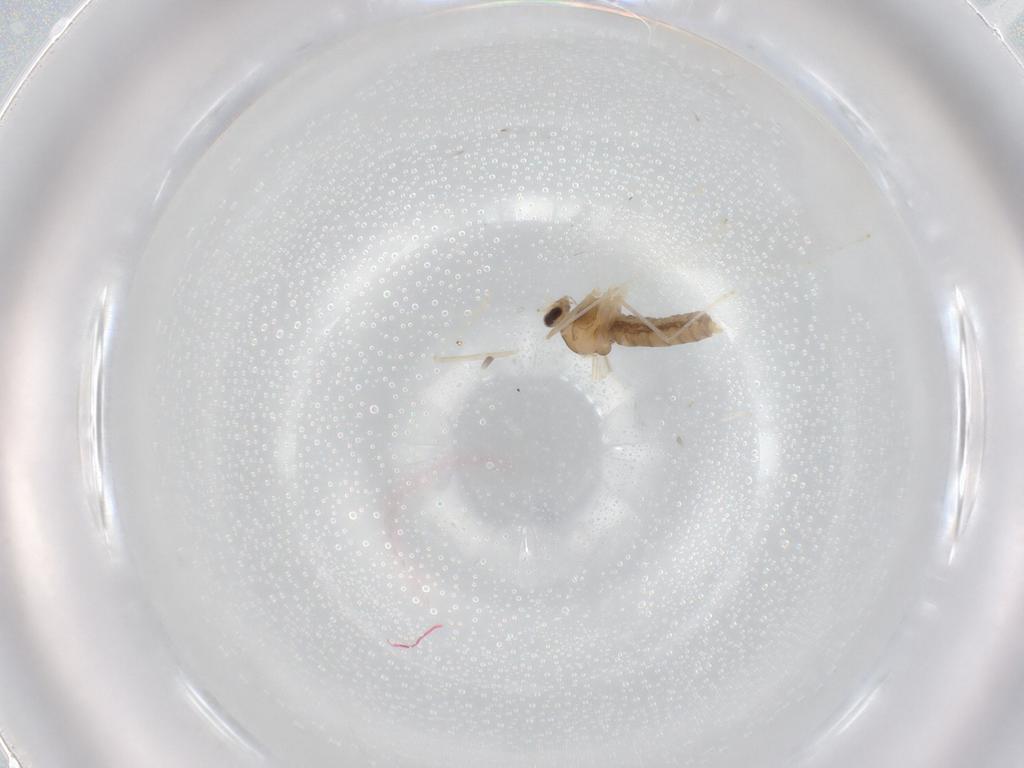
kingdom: Animalia
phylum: Arthropoda
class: Insecta
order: Diptera
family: Cecidomyiidae
